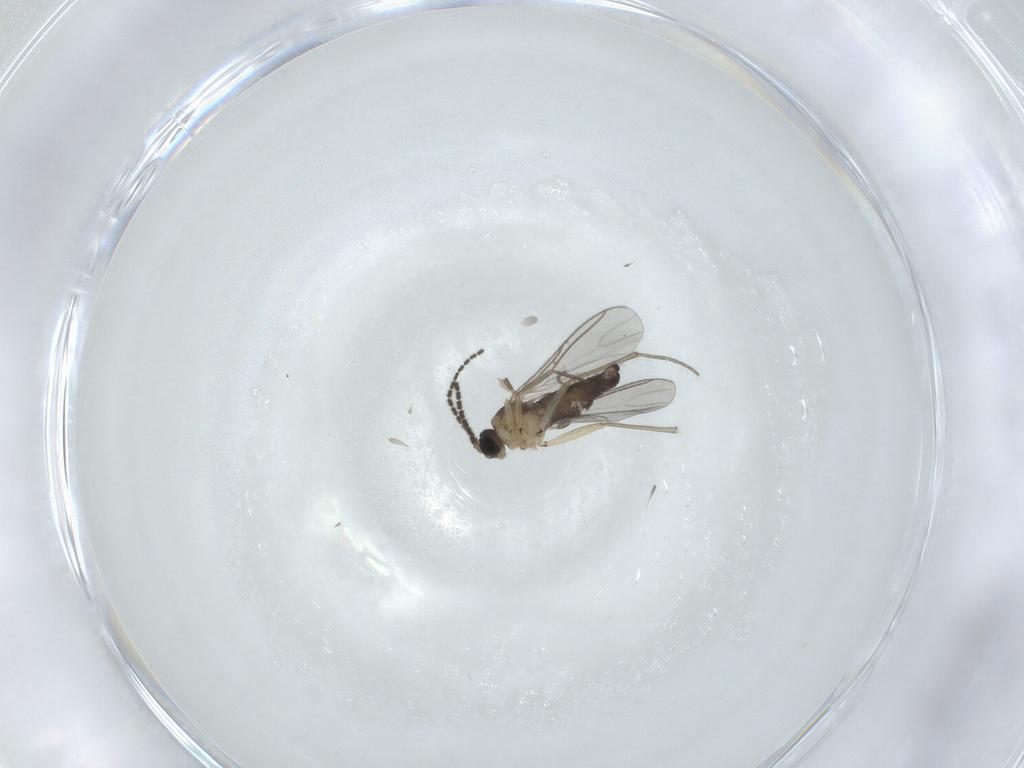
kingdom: Animalia
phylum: Arthropoda
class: Insecta
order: Diptera
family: Sciaridae
